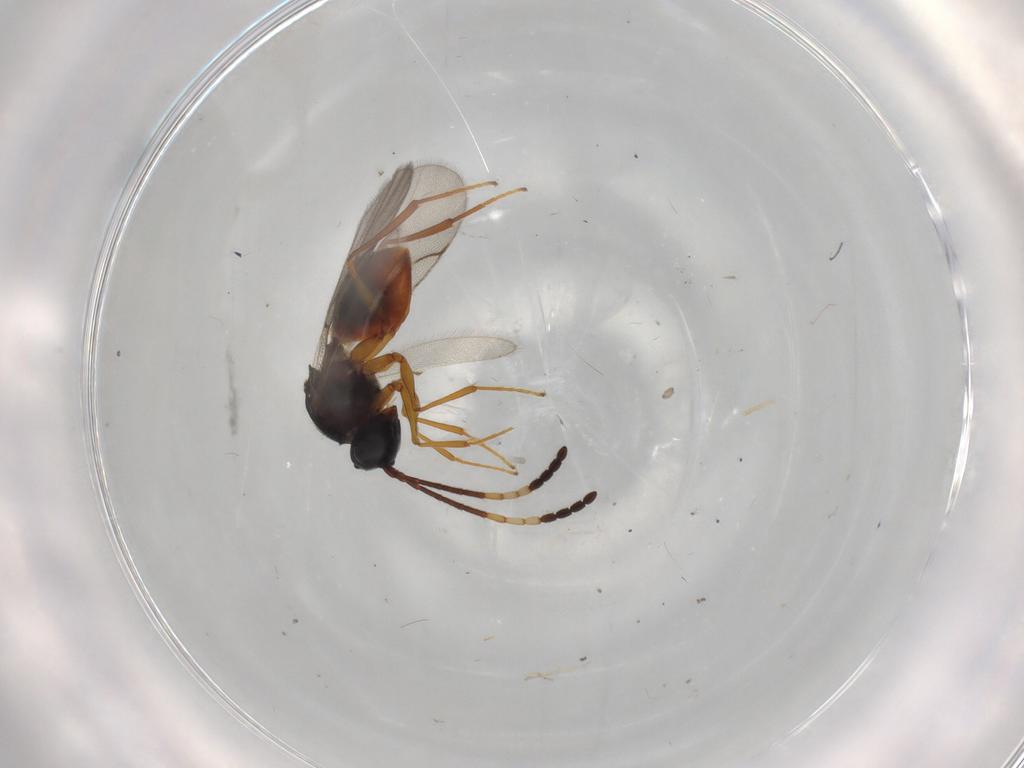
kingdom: Animalia
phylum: Arthropoda
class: Insecta
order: Hymenoptera
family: Figitidae
